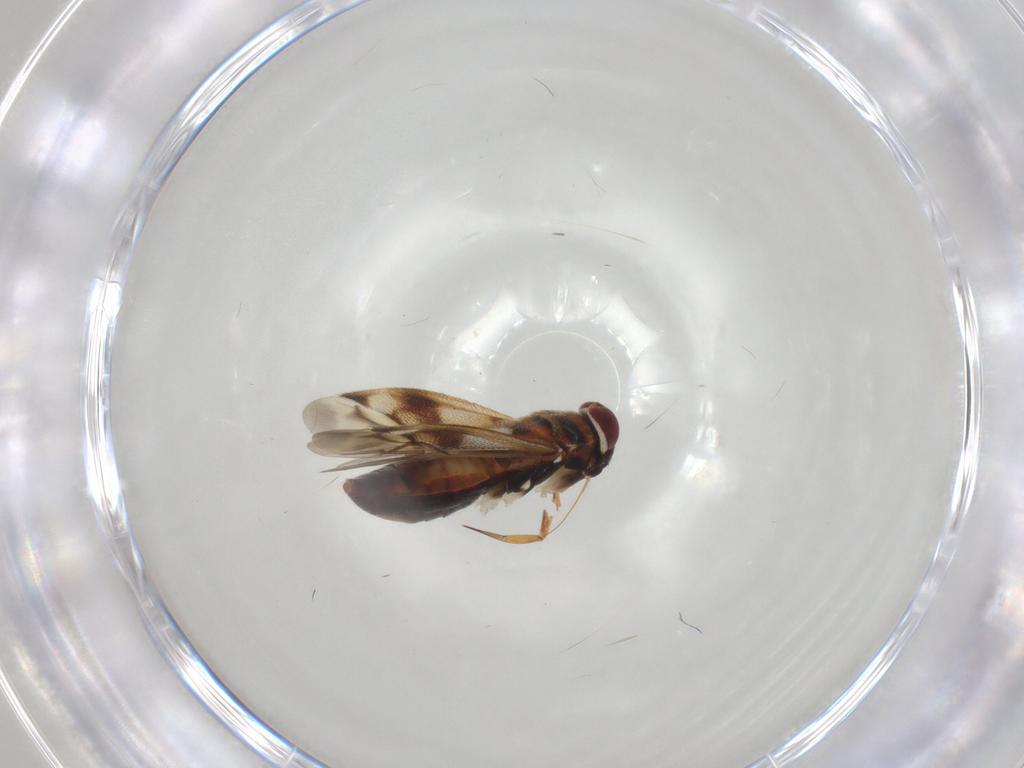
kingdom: Animalia
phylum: Arthropoda
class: Insecta
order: Hemiptera
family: Miridae
